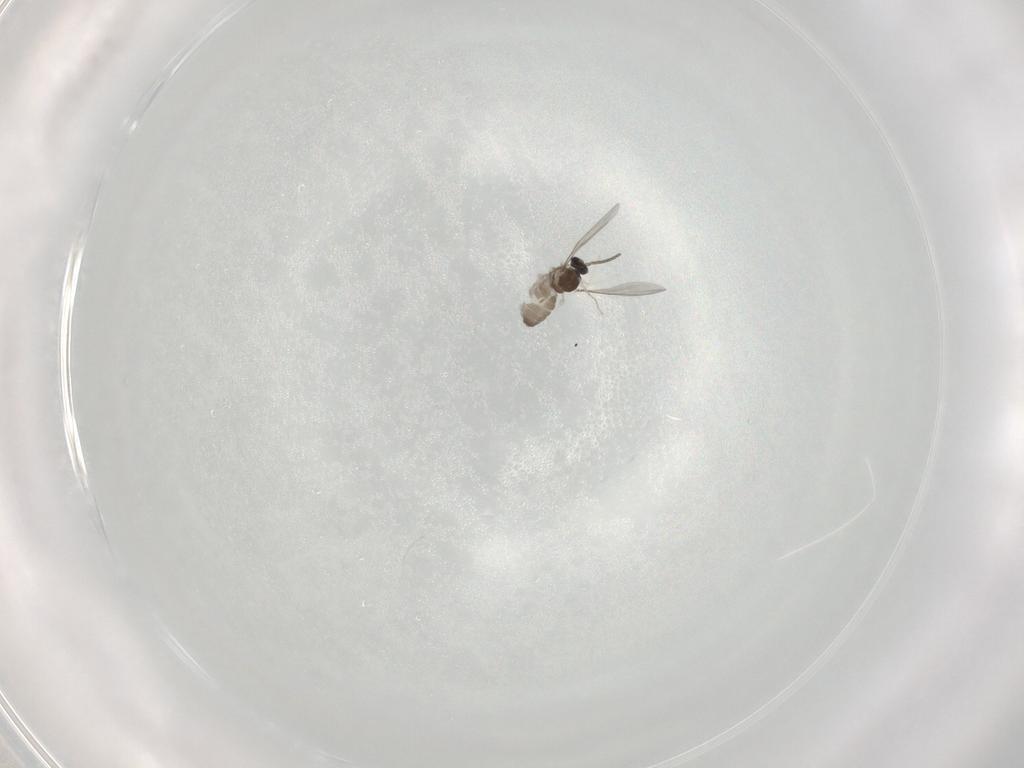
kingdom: Animalia
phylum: Arthropoda
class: Insecta
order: Diptera
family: Cecidomyiidae
